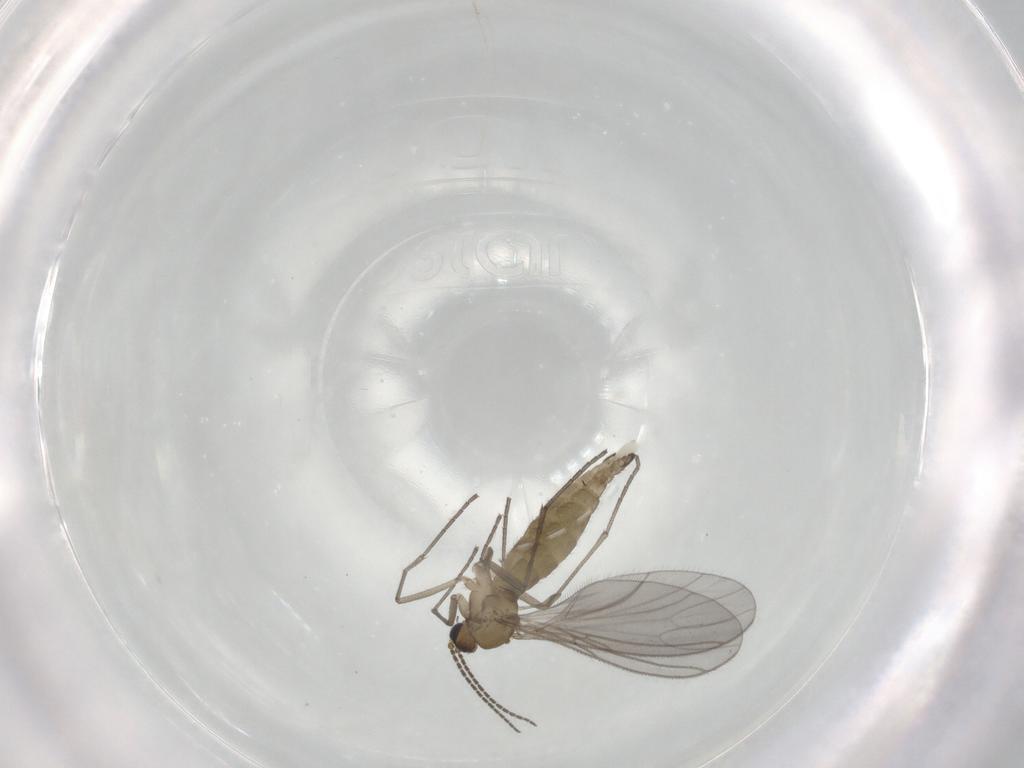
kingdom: Animalia
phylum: Arthropoda
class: Insecta
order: Diptera
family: Sciaridae
